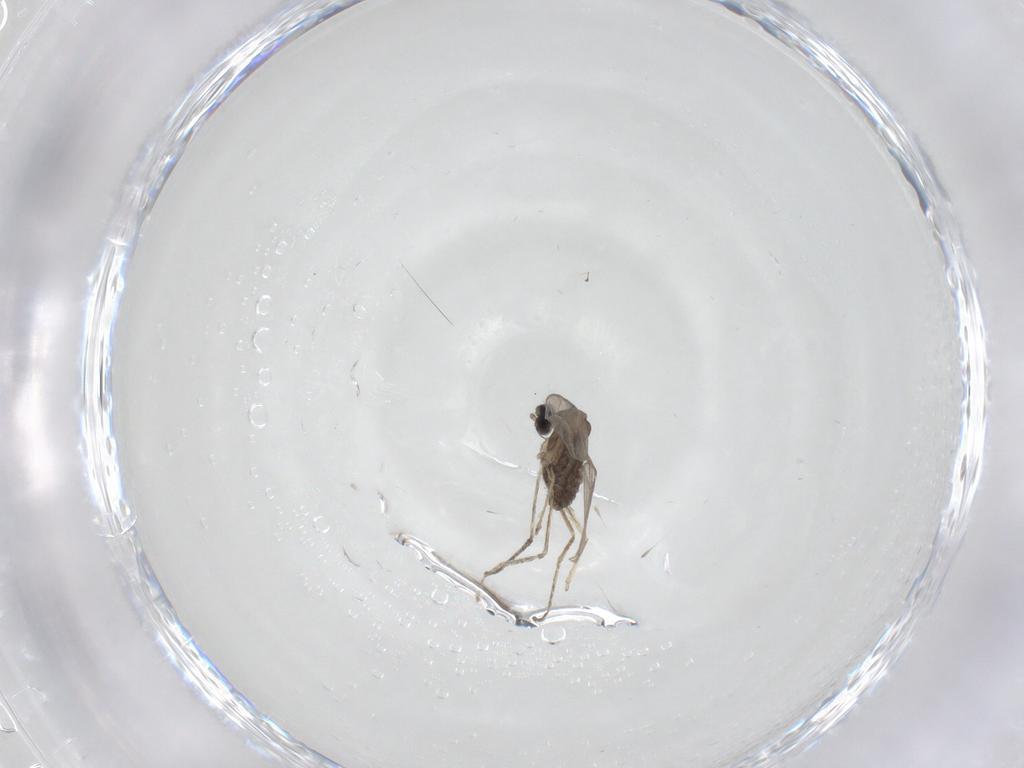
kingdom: Animalia
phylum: Arthropoda
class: Insecta
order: Diptera
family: Cecidomyiidae
